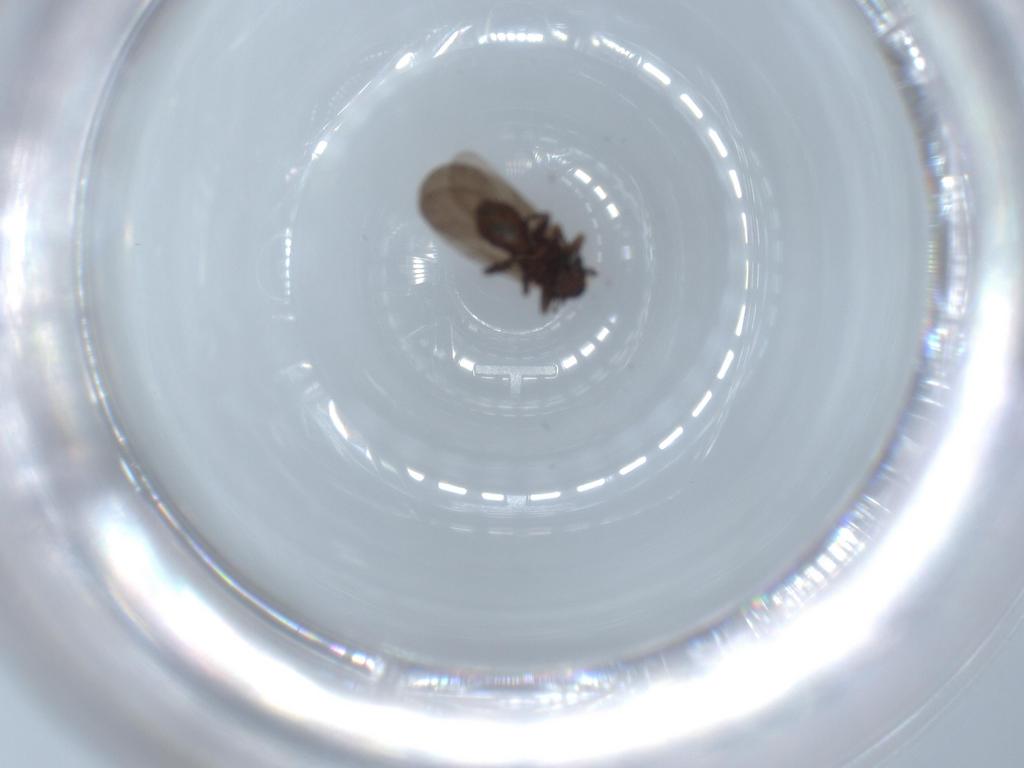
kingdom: Animalia
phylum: Arthropoda
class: Insecta
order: Psocodea
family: Lepidopsocidae
